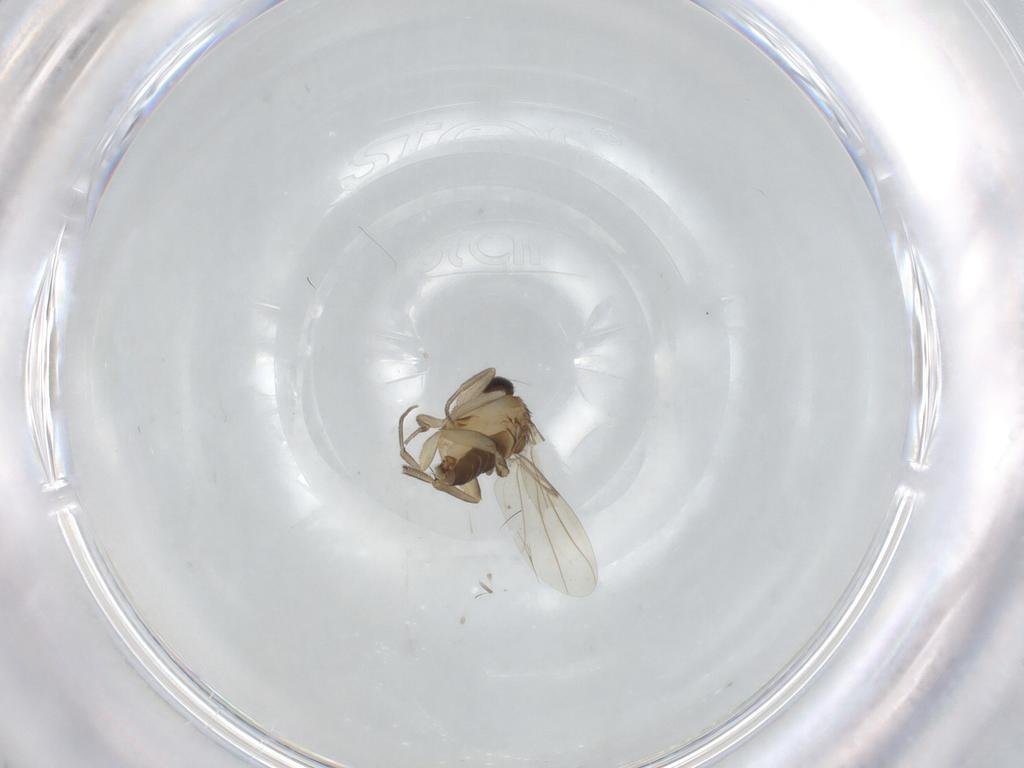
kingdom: Animalia
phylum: Arthropoda
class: Insecta
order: Diptera
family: Phoridae
